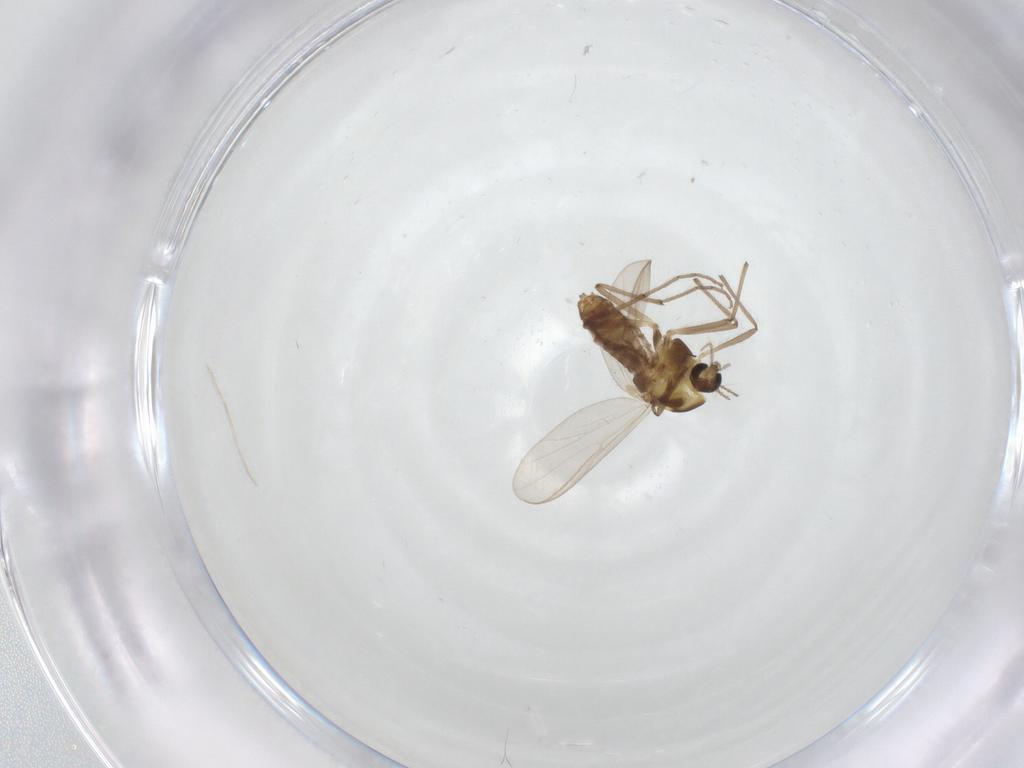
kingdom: Animalia
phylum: Arthropoda
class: Insecta
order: Diptera
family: Chironomidae
